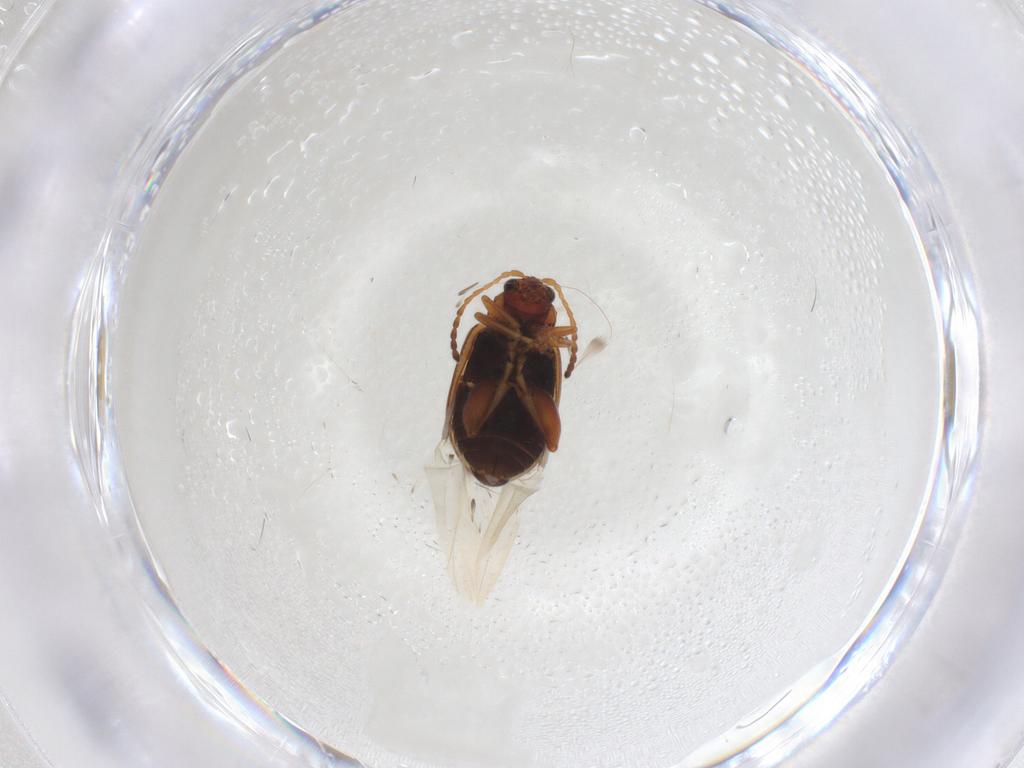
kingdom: Animalia
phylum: Arthropoda
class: Insecta
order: Coleoptera
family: Chrysomelidae
